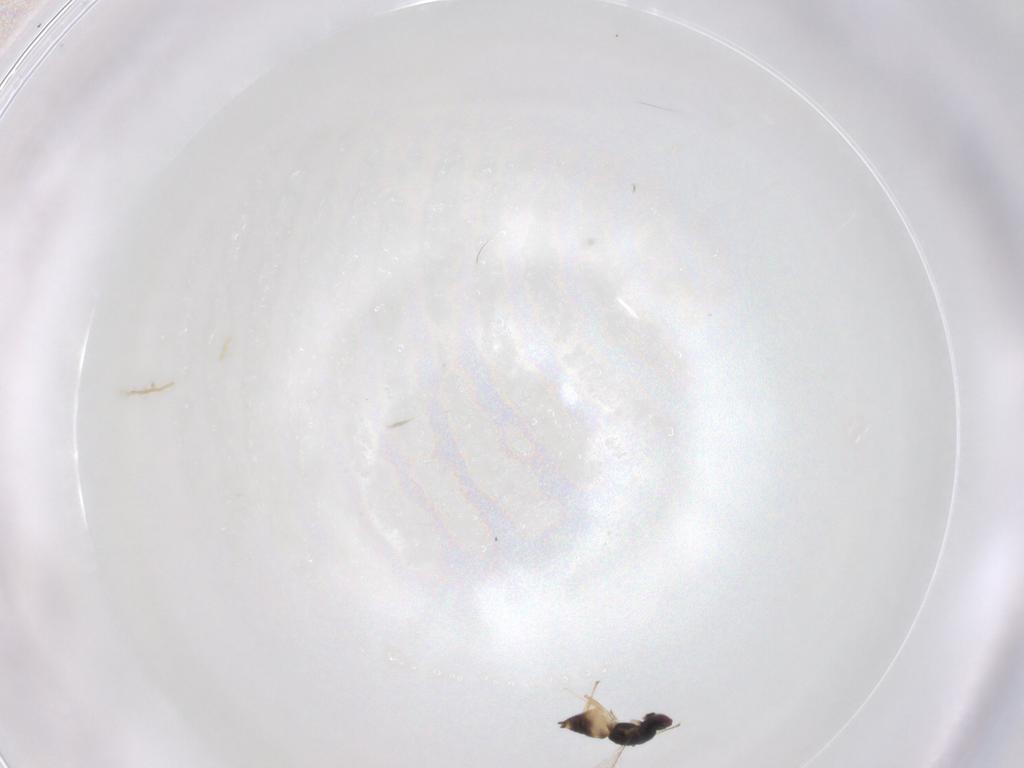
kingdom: Animalia
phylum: Arthropoda
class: Insecta
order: Hymenoptera
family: Eulophidae
